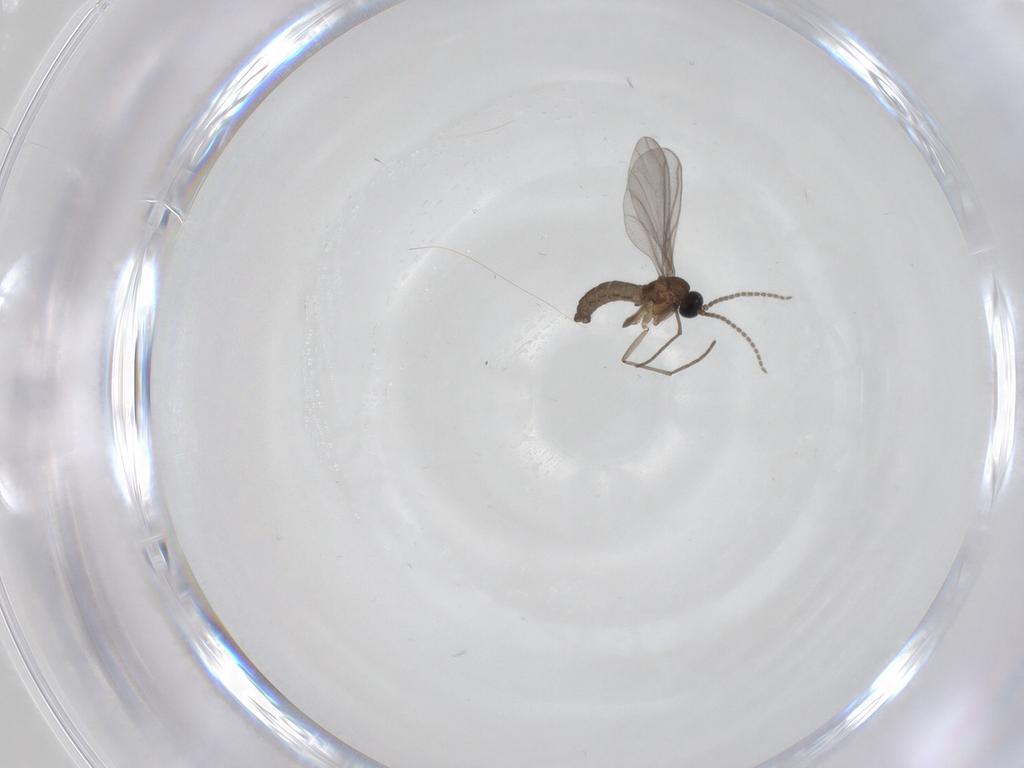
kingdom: Animalia
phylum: Arthropoda
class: Insecta
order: Diptera
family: Sciaridae
